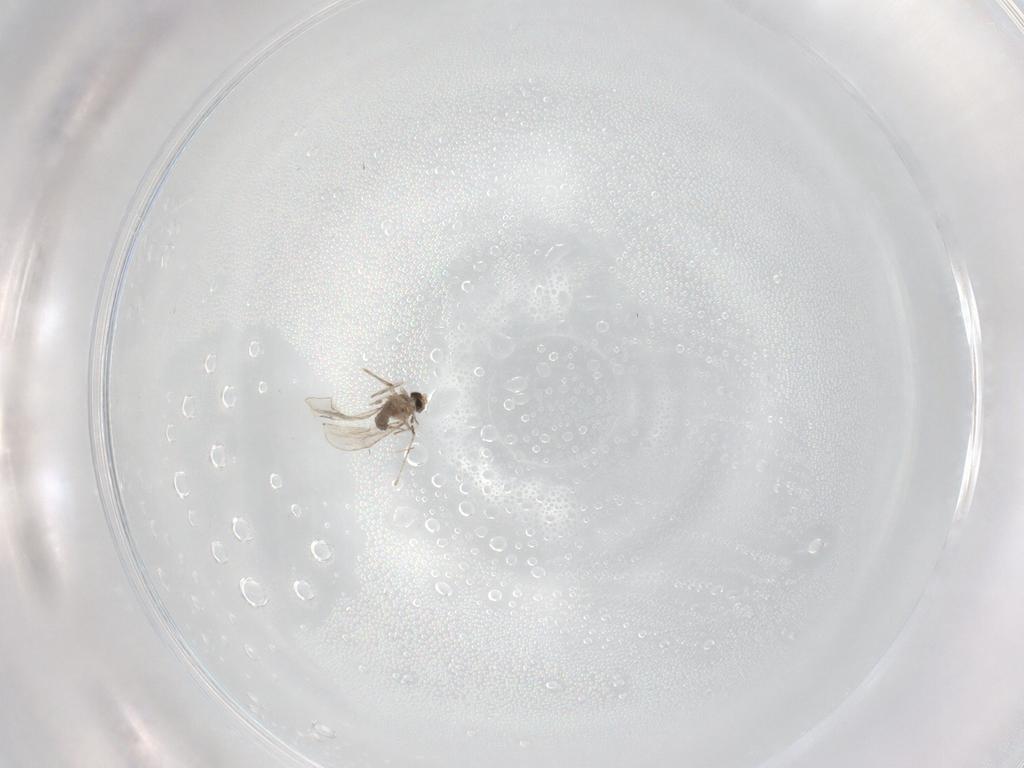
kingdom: Animalia
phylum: Arthropoda
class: Insecta
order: Diptera
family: Cecidomyiidae
